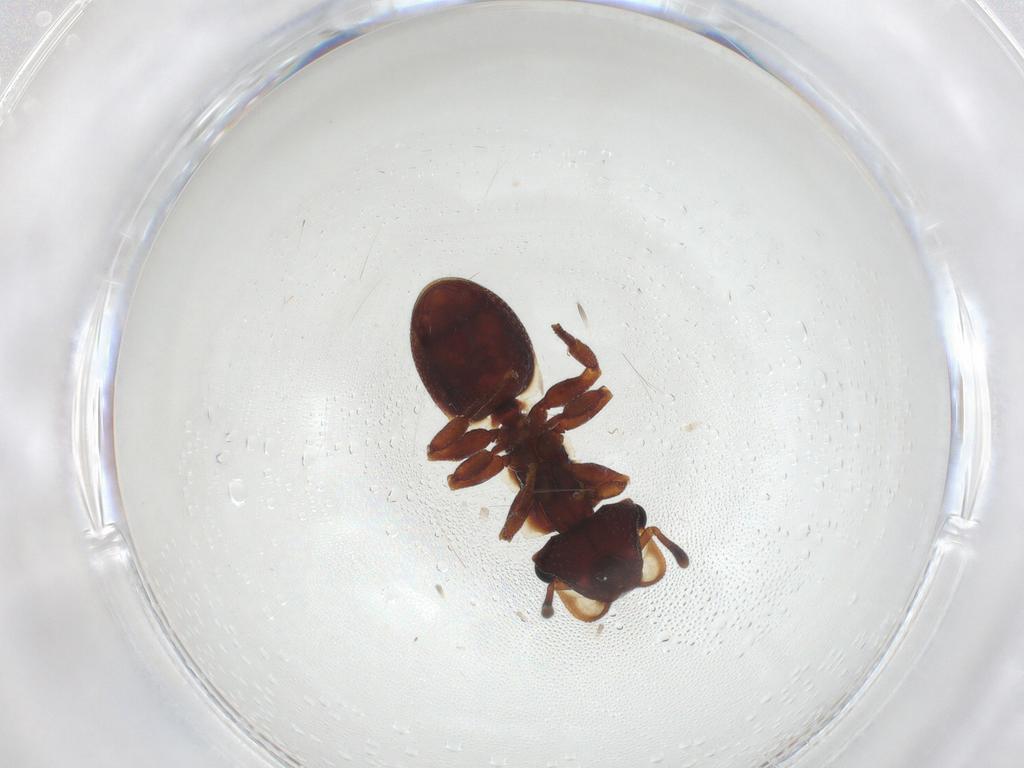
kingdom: Animalia
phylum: Arthropoda
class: Insecta
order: Hymenoptera
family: Formicidae
